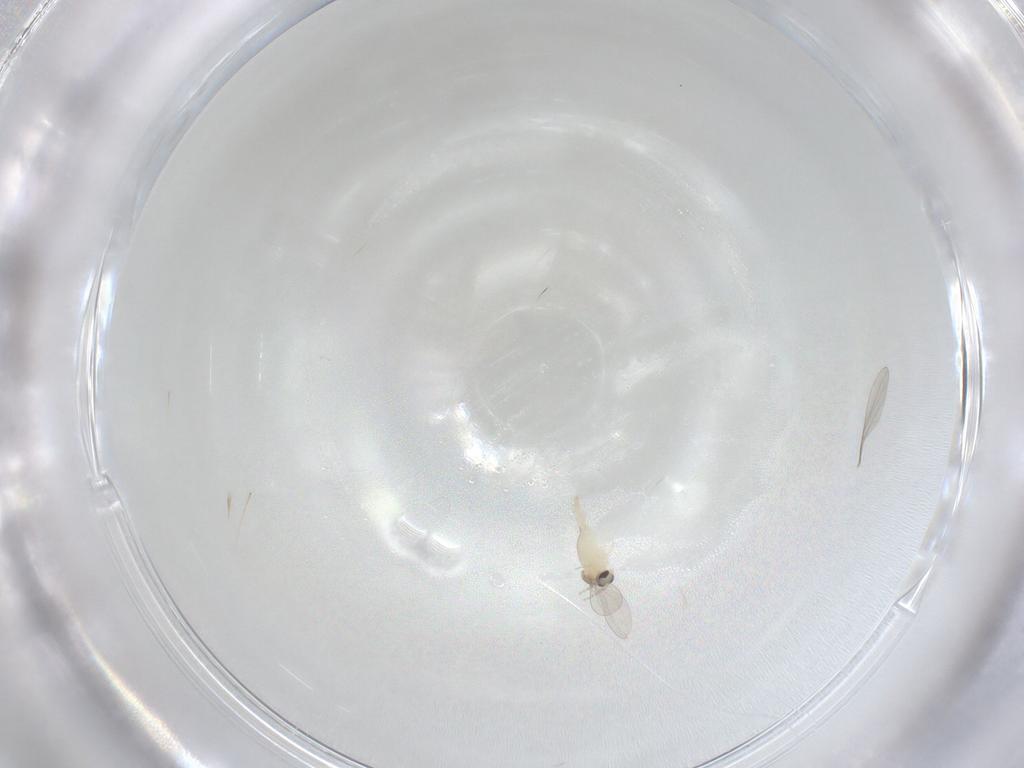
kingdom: Animalia
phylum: Arthropoda
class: Insecta
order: Diptera
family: Cecidomyiidae
